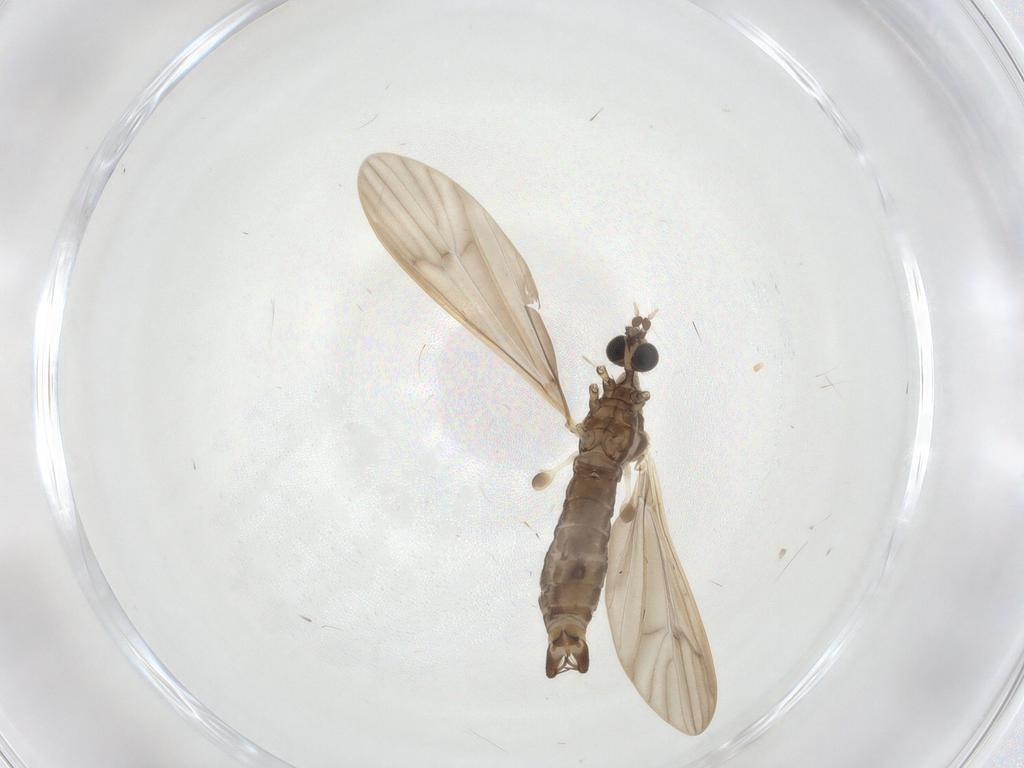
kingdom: Animalia
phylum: Arthropoda
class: Insecta
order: Diptera
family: Limoniidae
